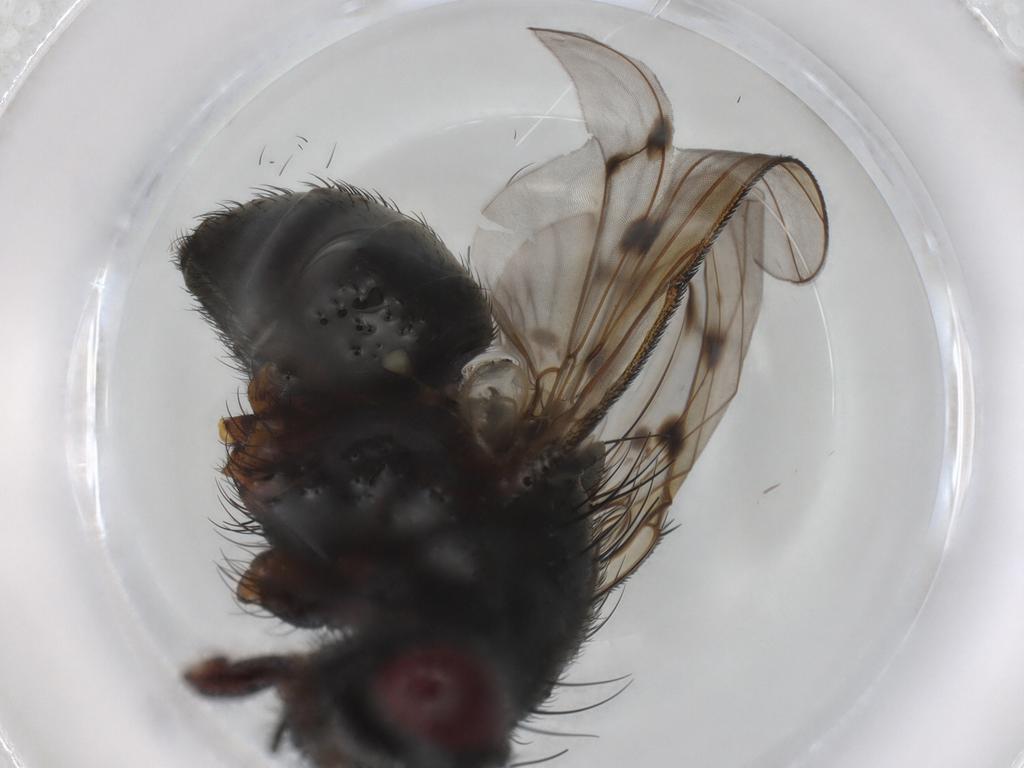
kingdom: Animalia
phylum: Arthropoda
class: Insecta
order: Diptera
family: Phoridae
